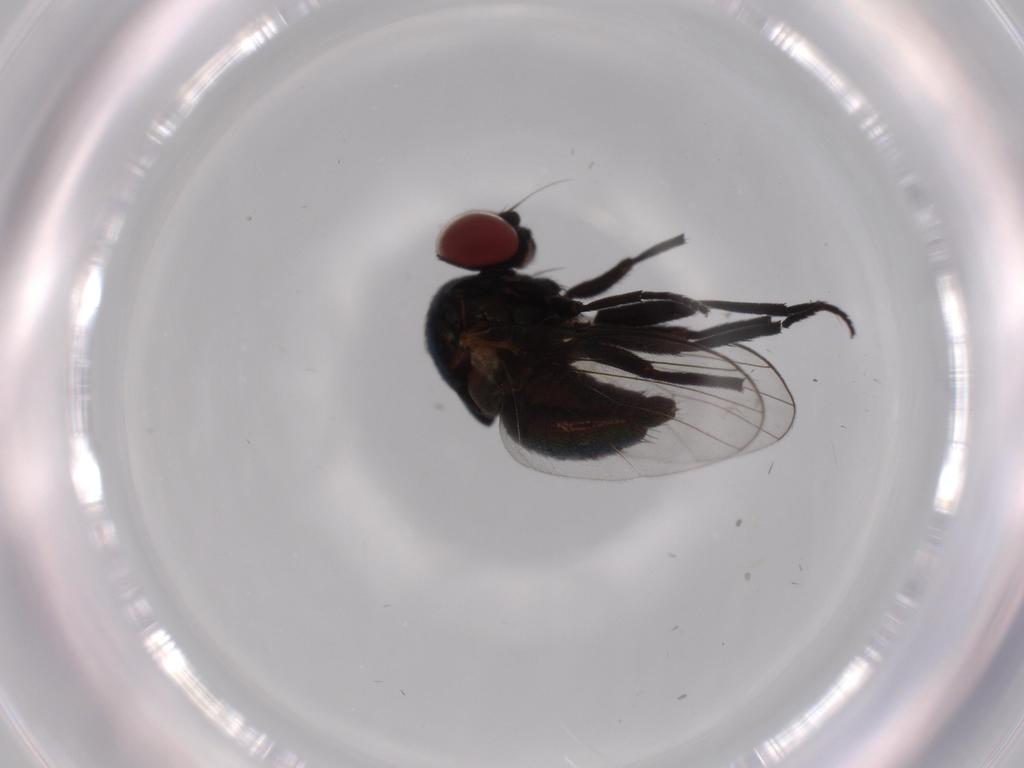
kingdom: Animalia
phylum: Arthropoda
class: Insecta
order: Diptera
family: Agromyzidae
